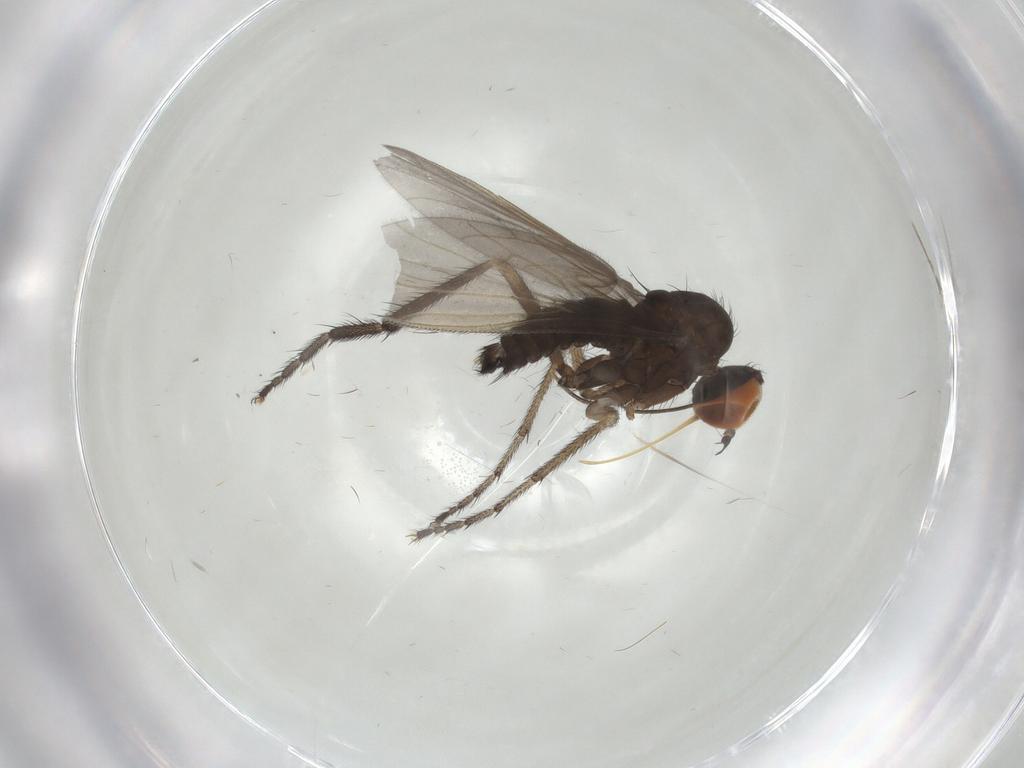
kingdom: Animalia
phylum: Arthropoda
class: Insecta
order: Diptera
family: Empididae
